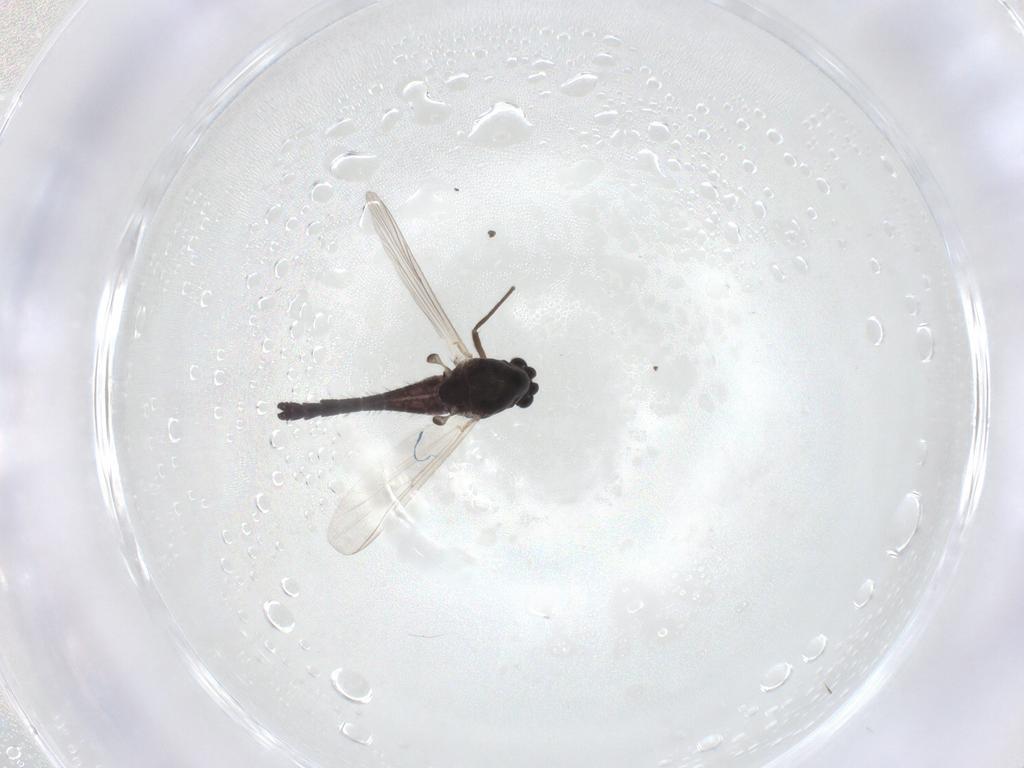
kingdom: Animalia
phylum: Arthropoda
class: Insecta
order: Diptera
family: Chironomidae
